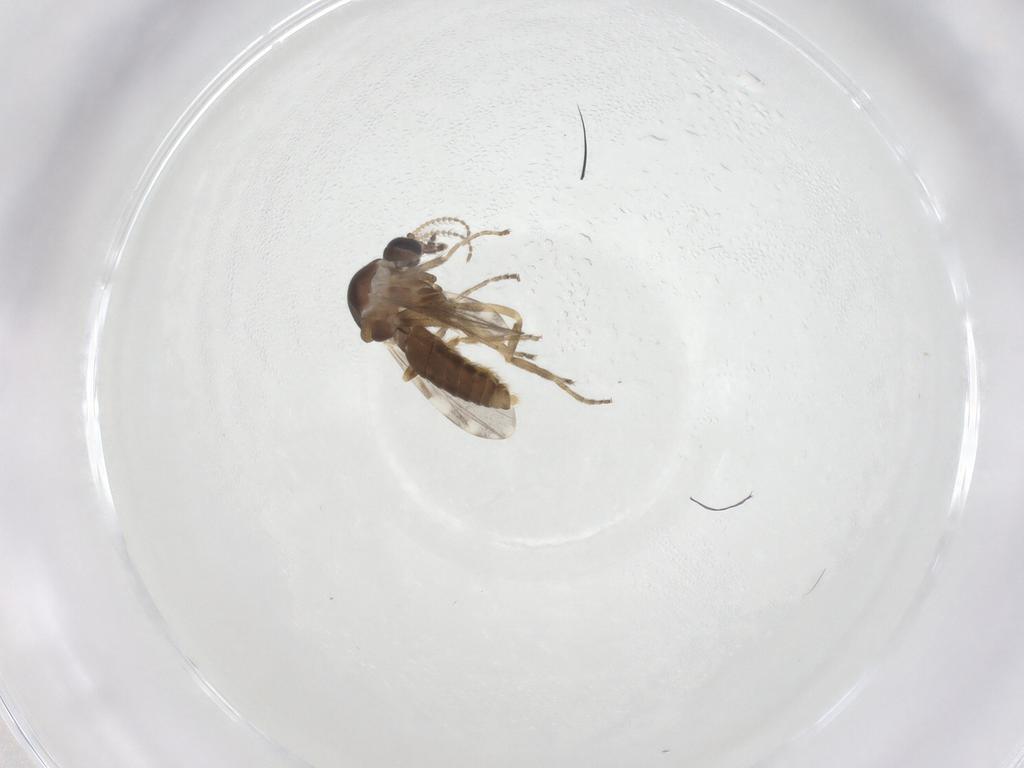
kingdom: Animalia
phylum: Arthropoda
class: Insecta
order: Diptera
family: Ceratopogonidae
